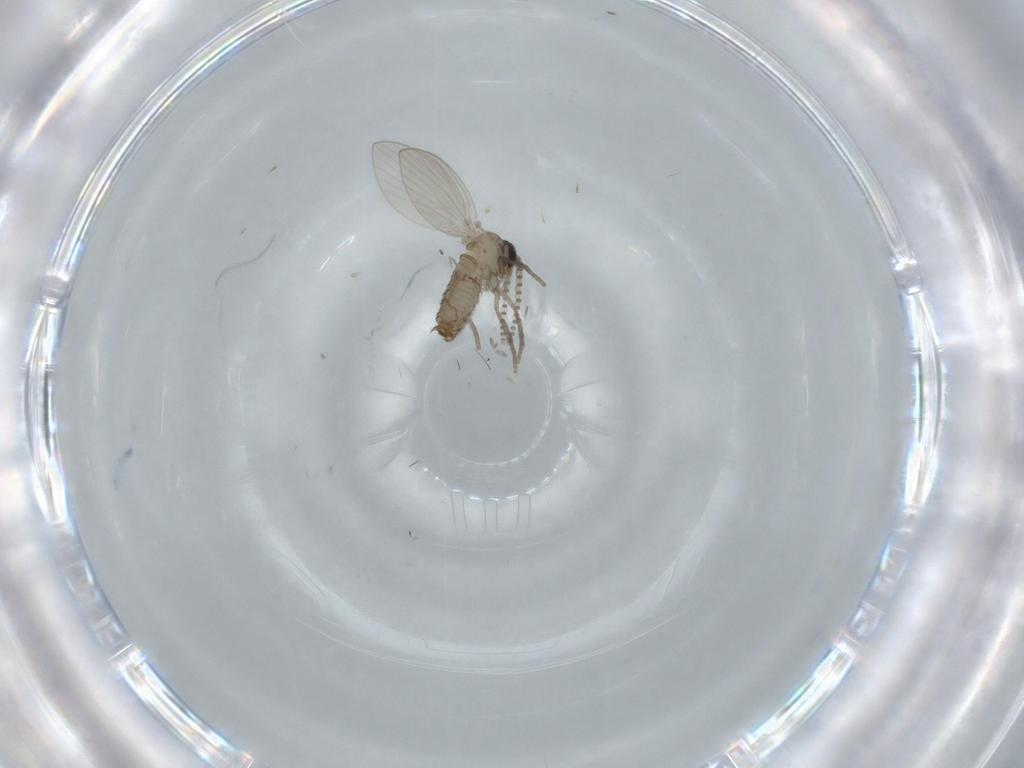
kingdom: Animalia
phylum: Arthropoda
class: Insecta
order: Diptera
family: Psychodidae
